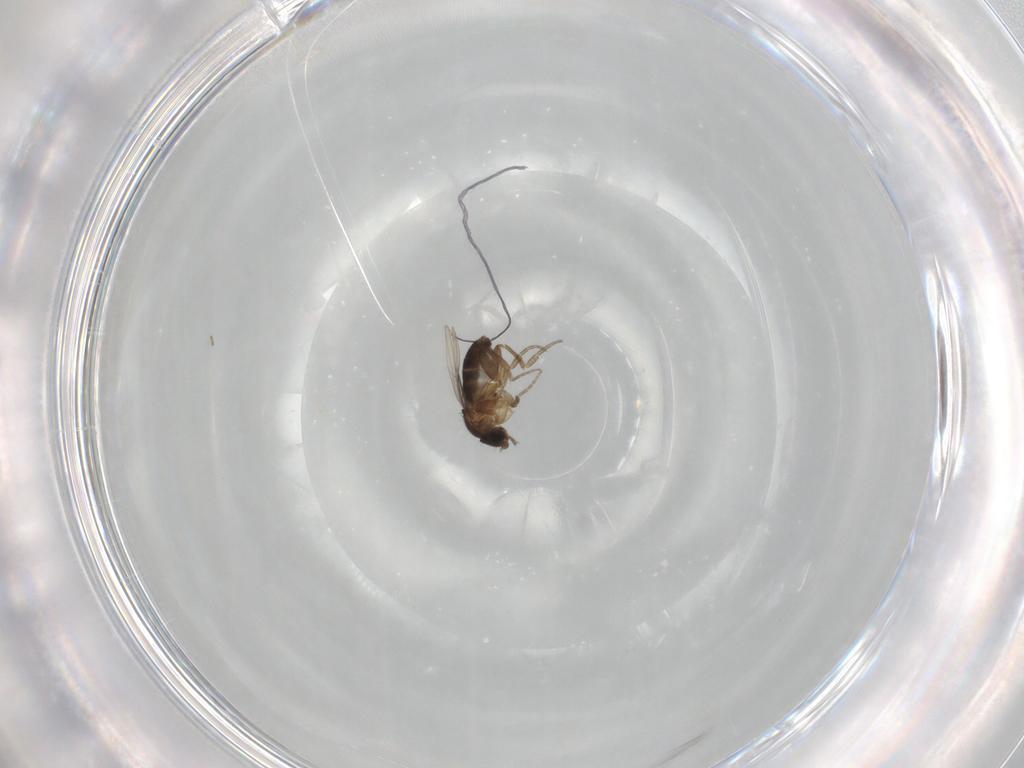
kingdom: Animalia
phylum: Arthropoda
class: Insecta
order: Diptera
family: Phoridae
